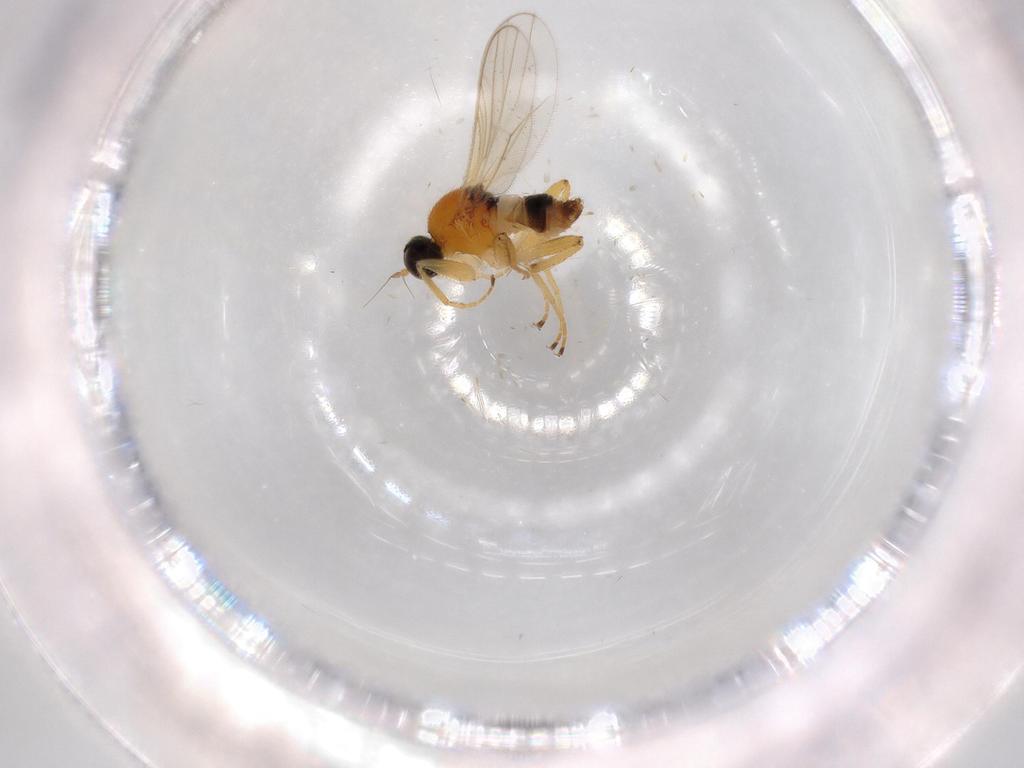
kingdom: Animalia
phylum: Arthropoda
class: Insecta
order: Diptera
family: Hybotidae
